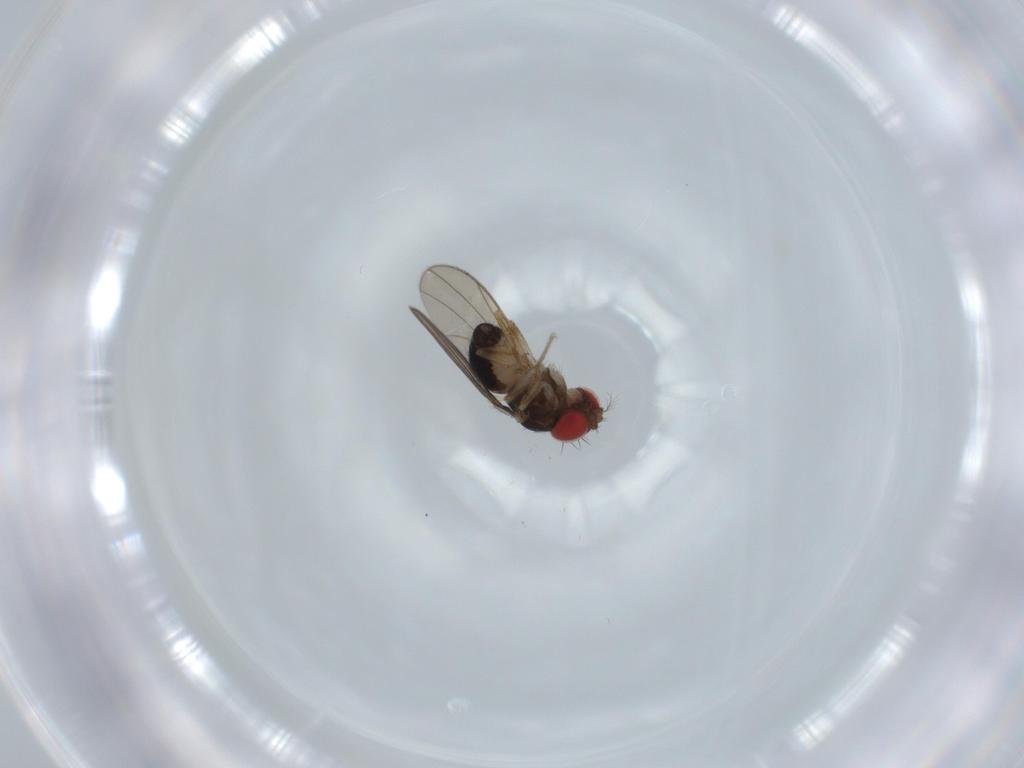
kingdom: Animalia
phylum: Arthropoda
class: Insecta
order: Diptera
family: Drosophilidae
